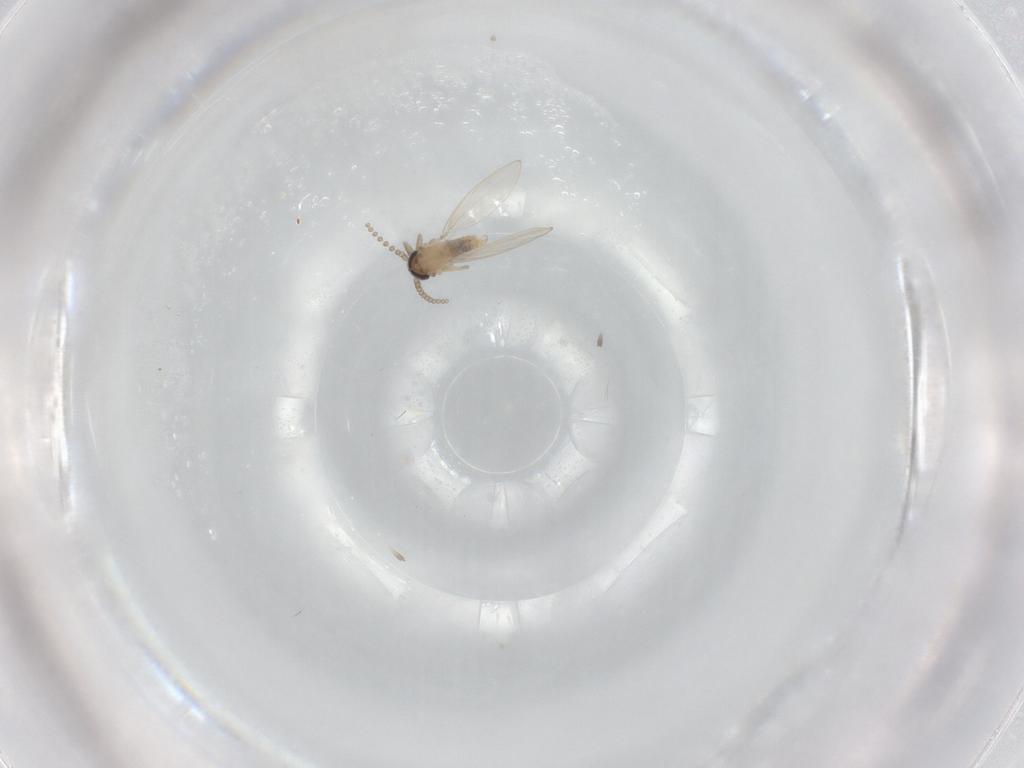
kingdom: Animalia
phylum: Arthropoda
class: Insecta
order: Diptera
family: Psychodidae
